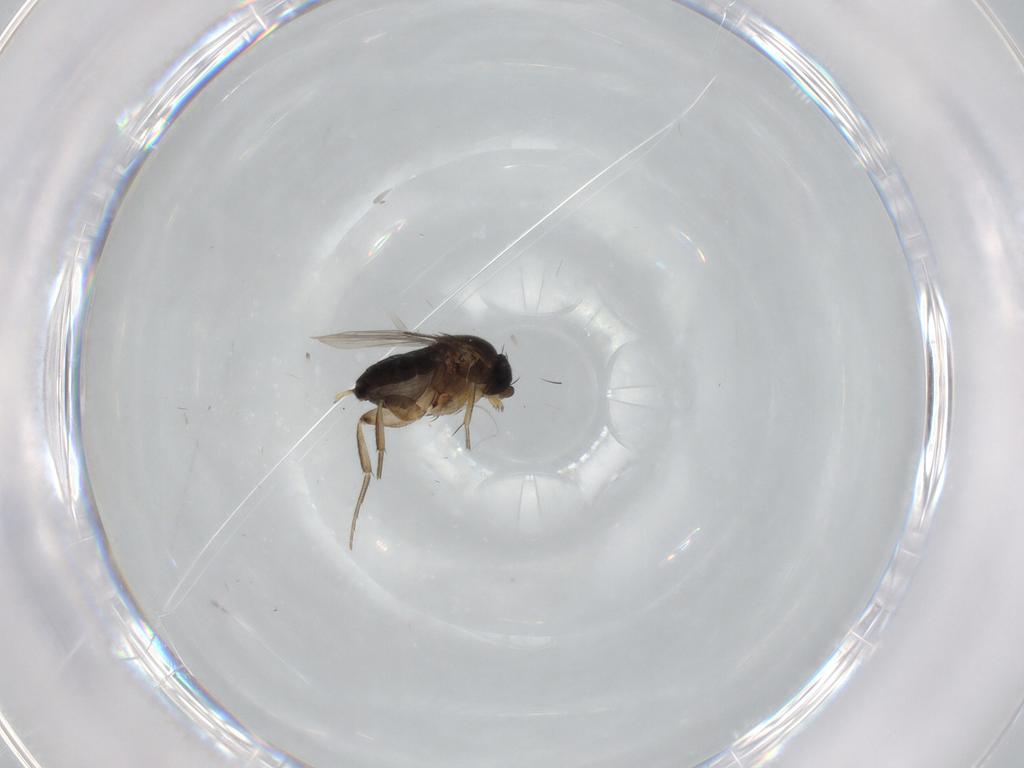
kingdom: Animalia
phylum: Arthropoda
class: Insecta
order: Diptera
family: Phoridae
